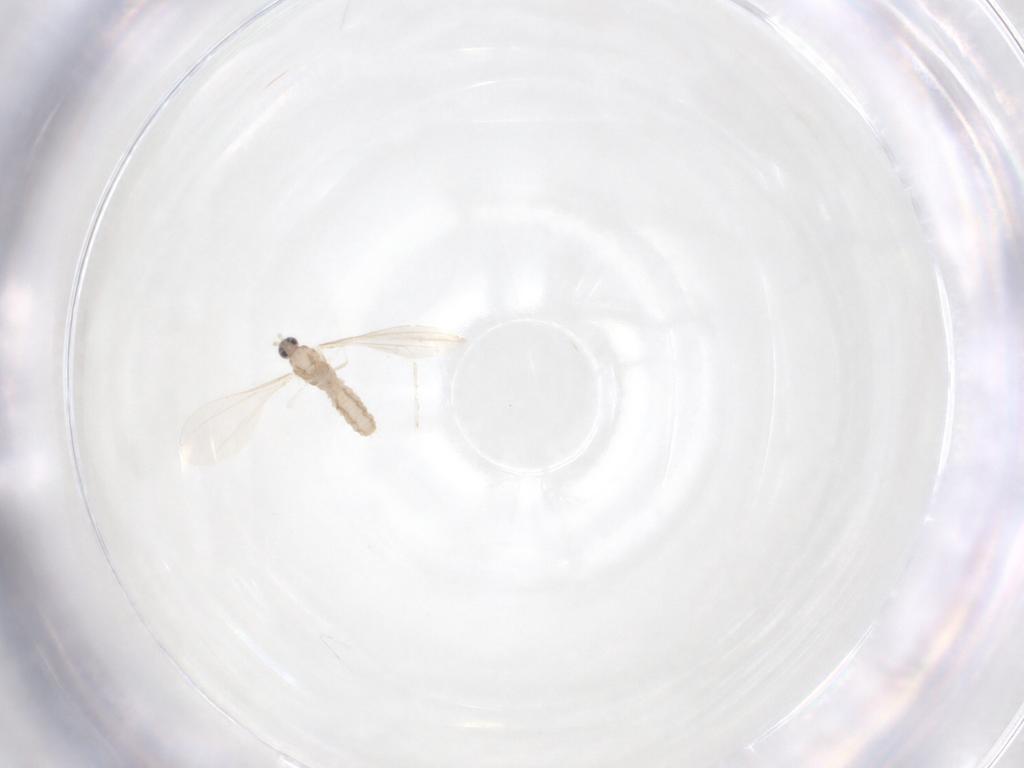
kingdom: Animalia
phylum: Arthropoda
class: Insecta
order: Diptera
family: Cecidomyiidae
